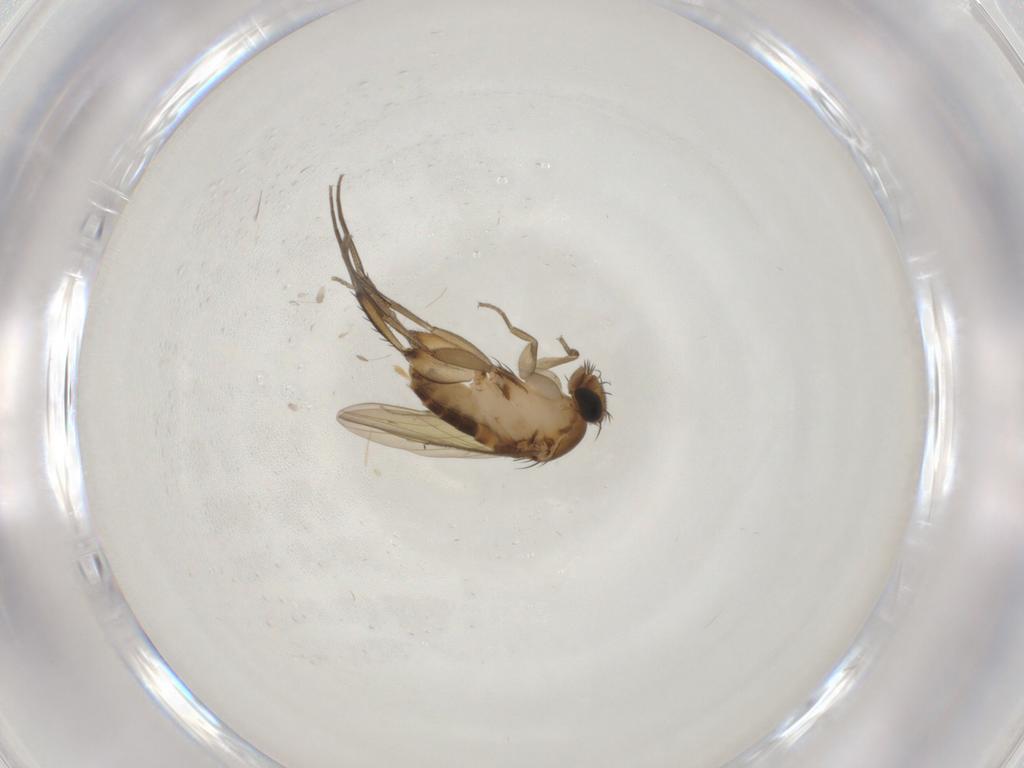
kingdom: Animalia
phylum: Arthropoda
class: Insecta
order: Diptera
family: Phoridae
